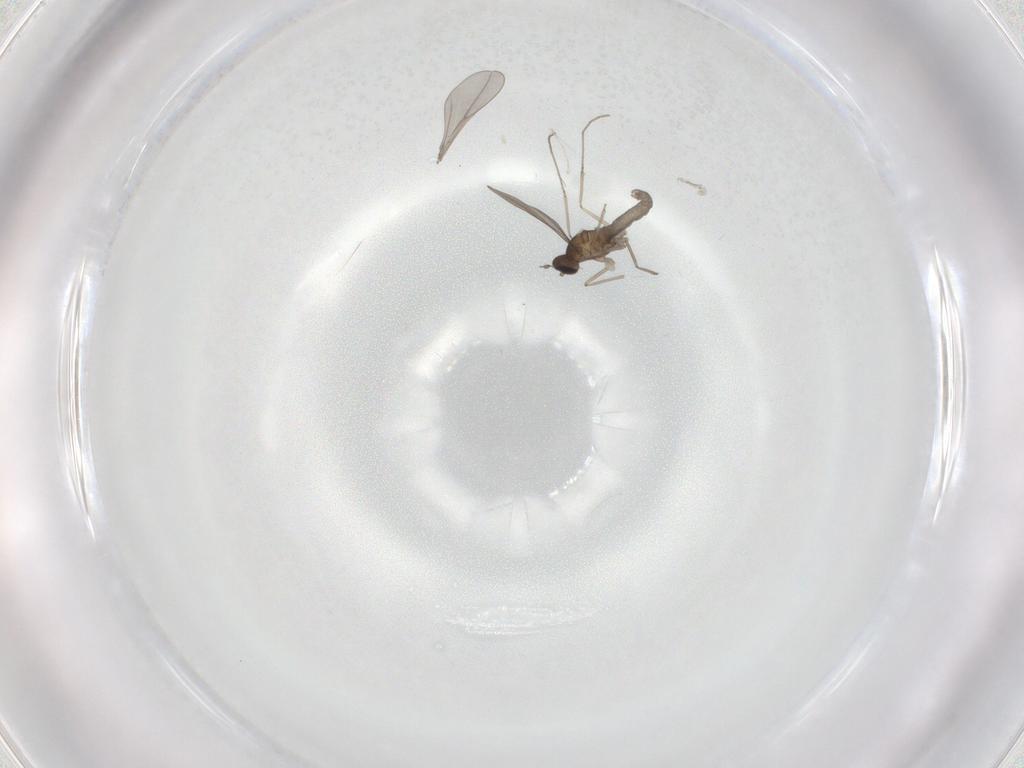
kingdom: Animalia
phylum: Arthropoda
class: Insecta
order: Diptera
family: Cecidomyiidae
